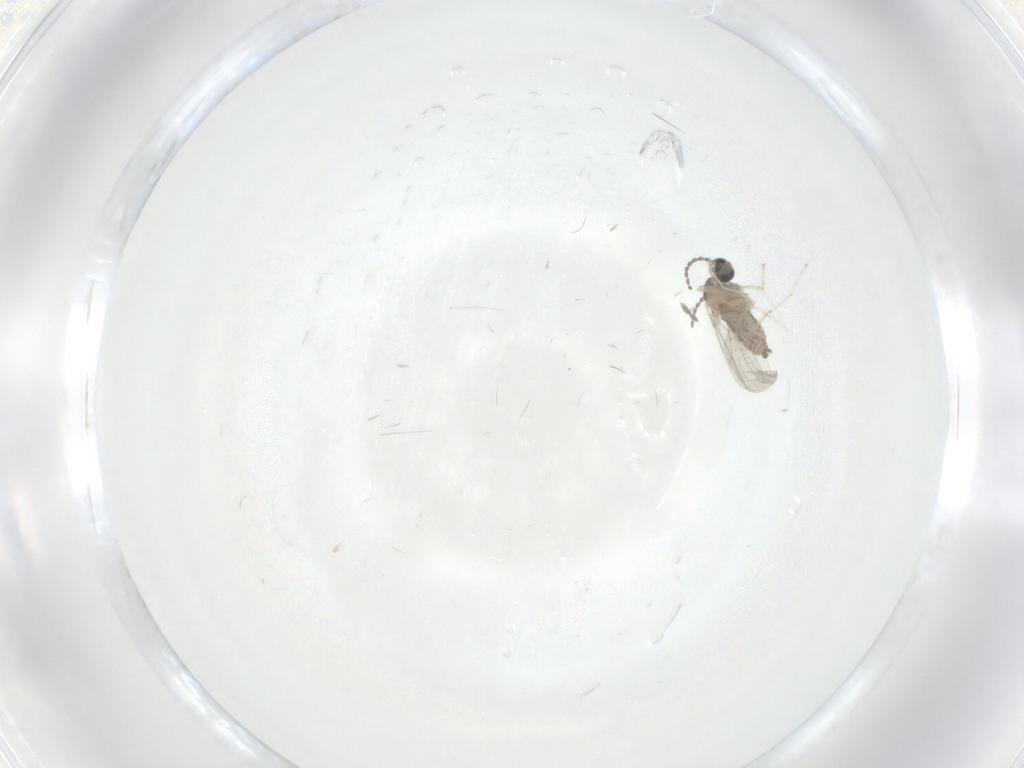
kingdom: Animalia
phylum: Arthropoda
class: Insecta
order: Diptera
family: Cecidomyiidae
